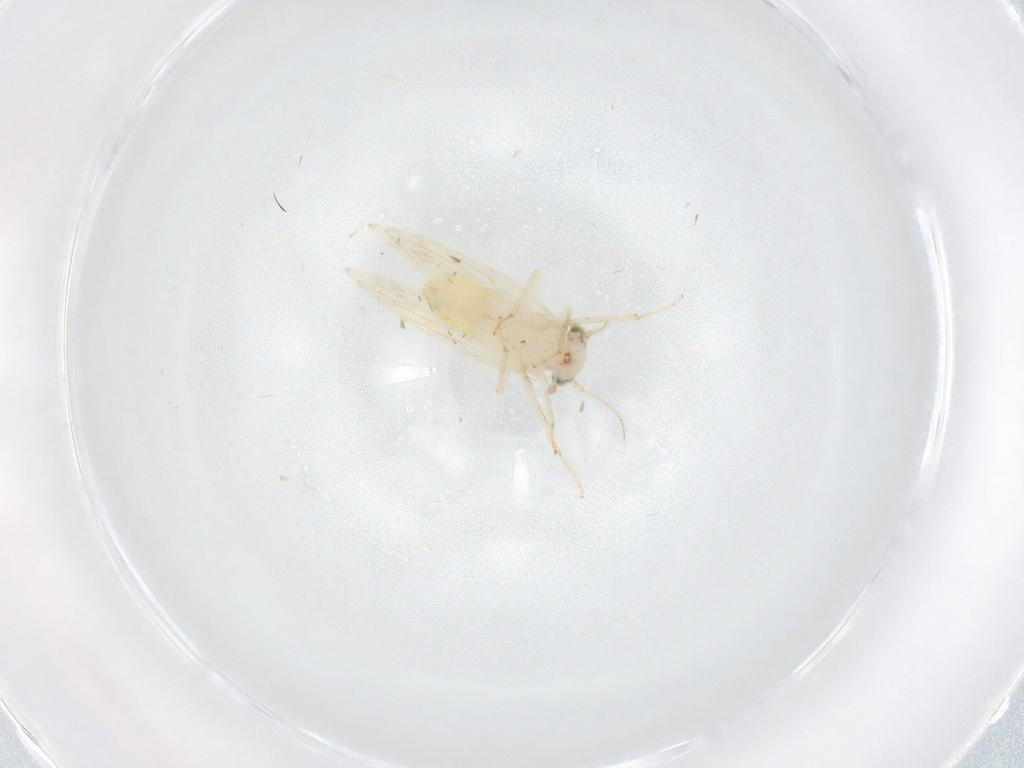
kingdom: Animalia
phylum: Arthropoda
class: Insecta
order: Psocodea
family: Lepidopsocidae
